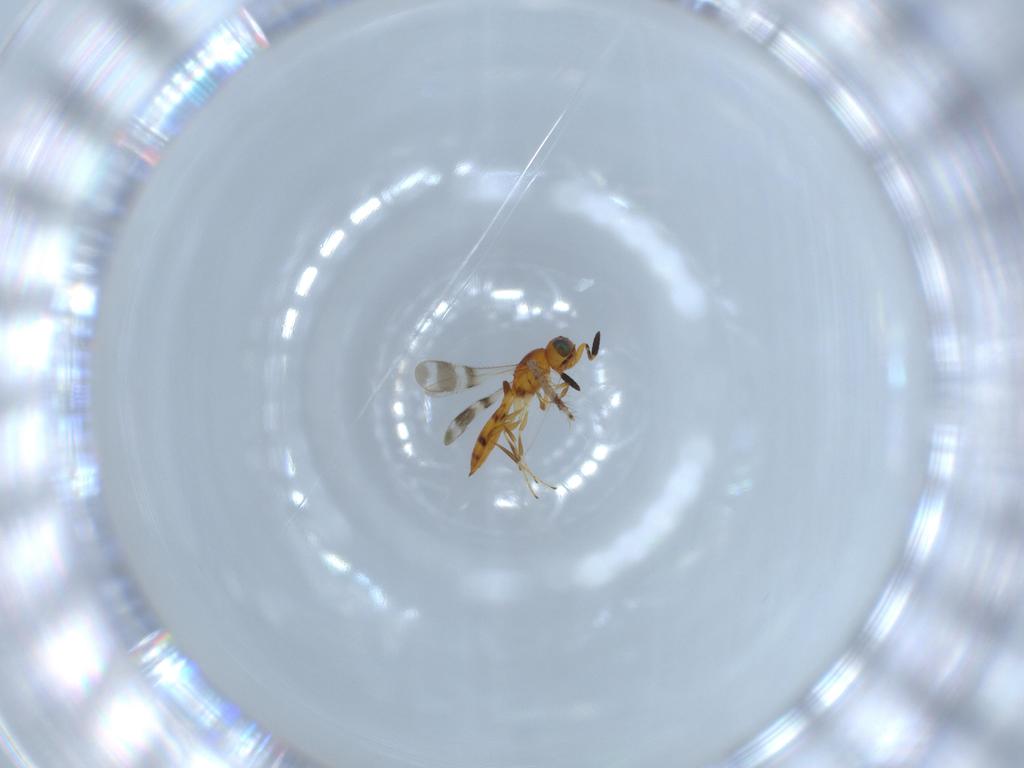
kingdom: Animalia
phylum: Arthropoda
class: Insecta
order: Hymenoptera
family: Scelionidae
